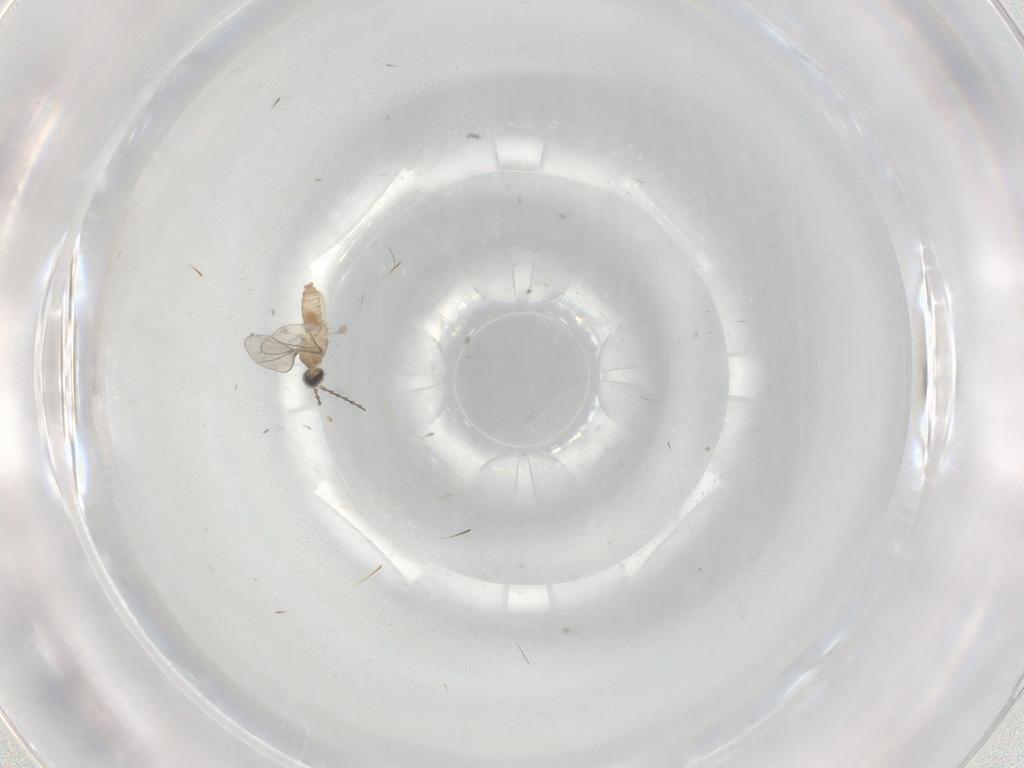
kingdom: Animalia
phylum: Arthropoda
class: Insecta
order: Diptera
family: Cecidomyiidae
